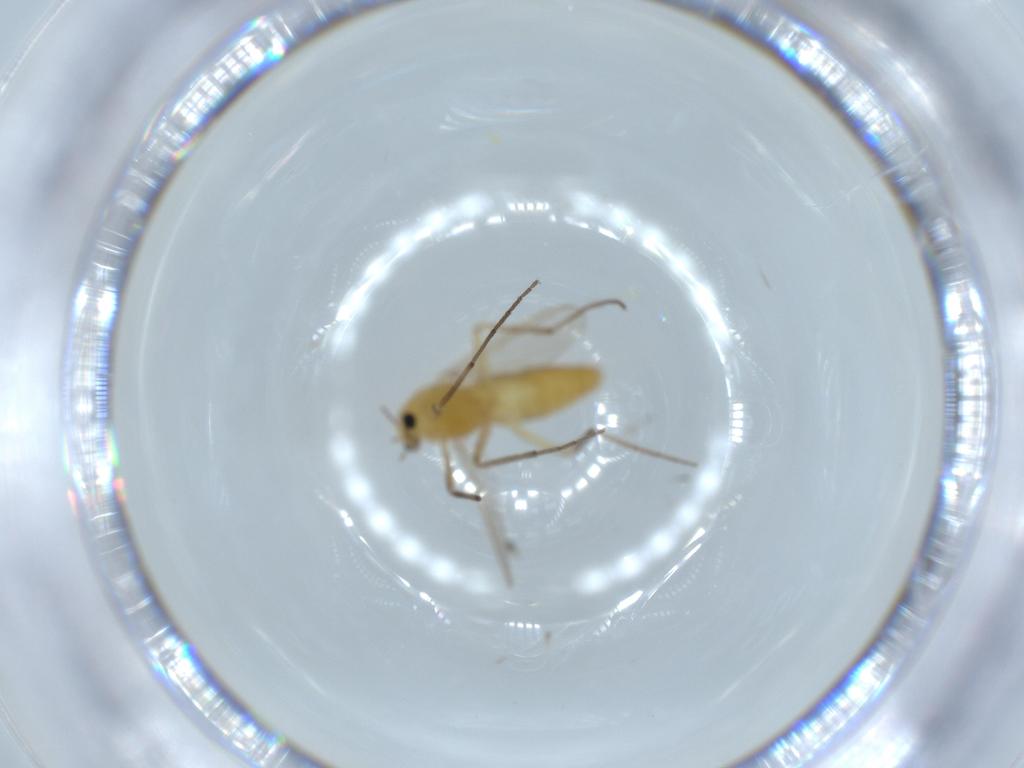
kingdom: Animalia
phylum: Arthropoda
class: Insecta
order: Diptera
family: Chironomidae
